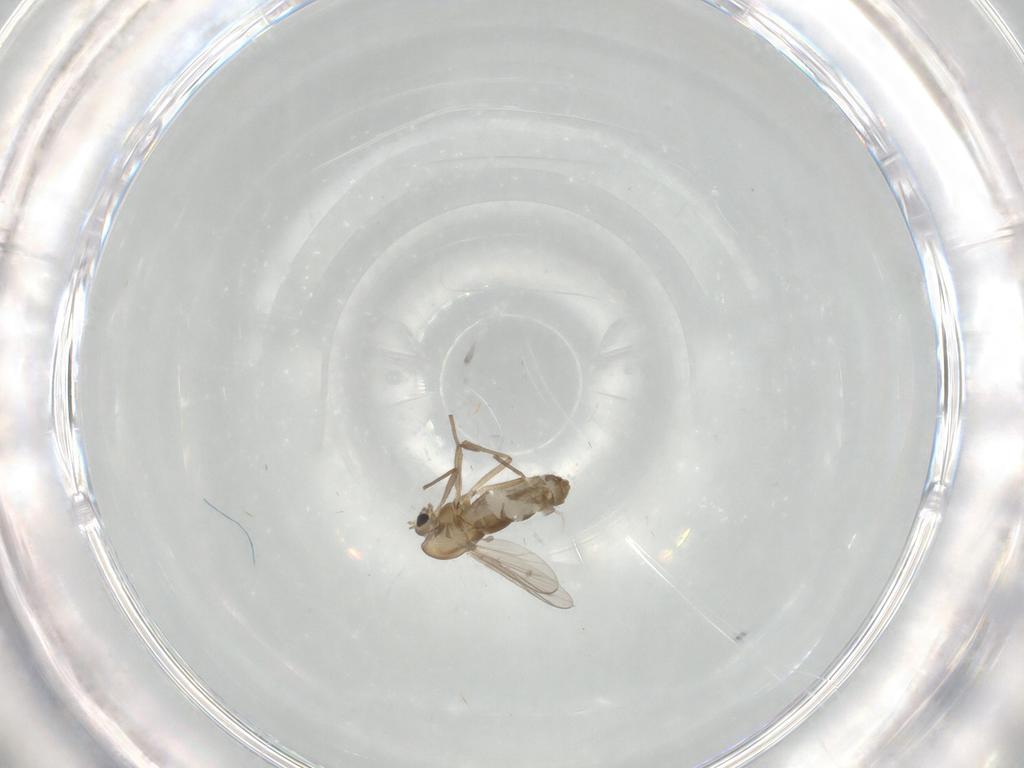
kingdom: Animalia
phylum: Arthropoda
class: Insecta
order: Diptera
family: Chironomidae
